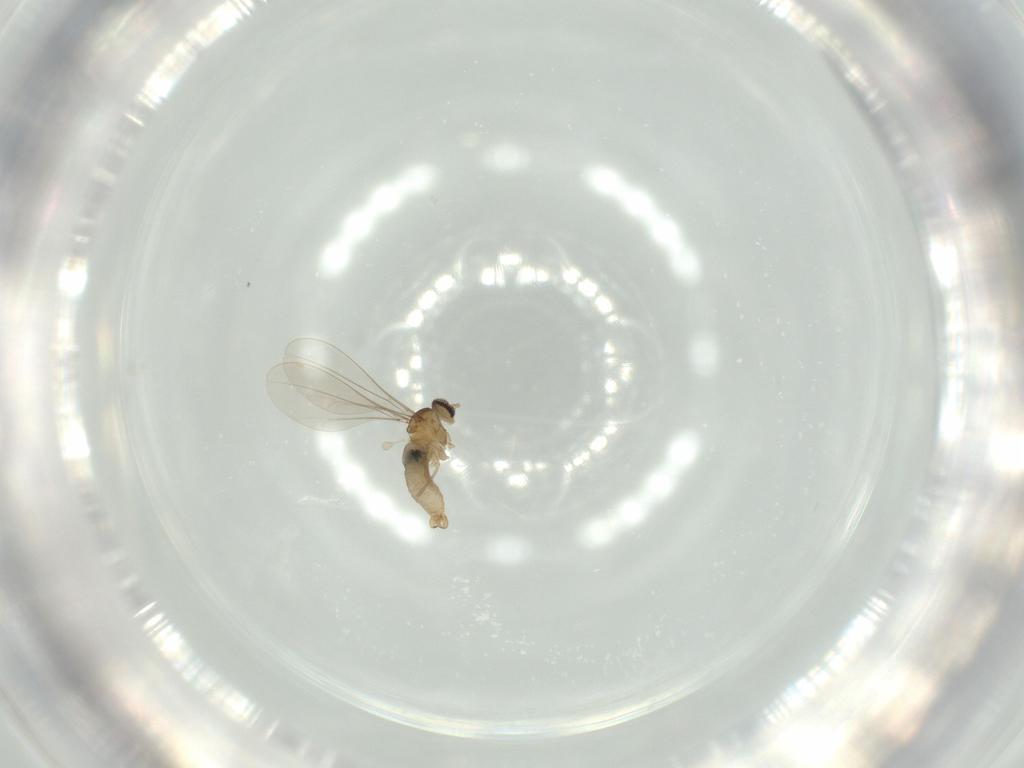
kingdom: Animalia
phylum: Arthropoda
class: Insecta
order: Diptera
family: Cecidomyiidae
